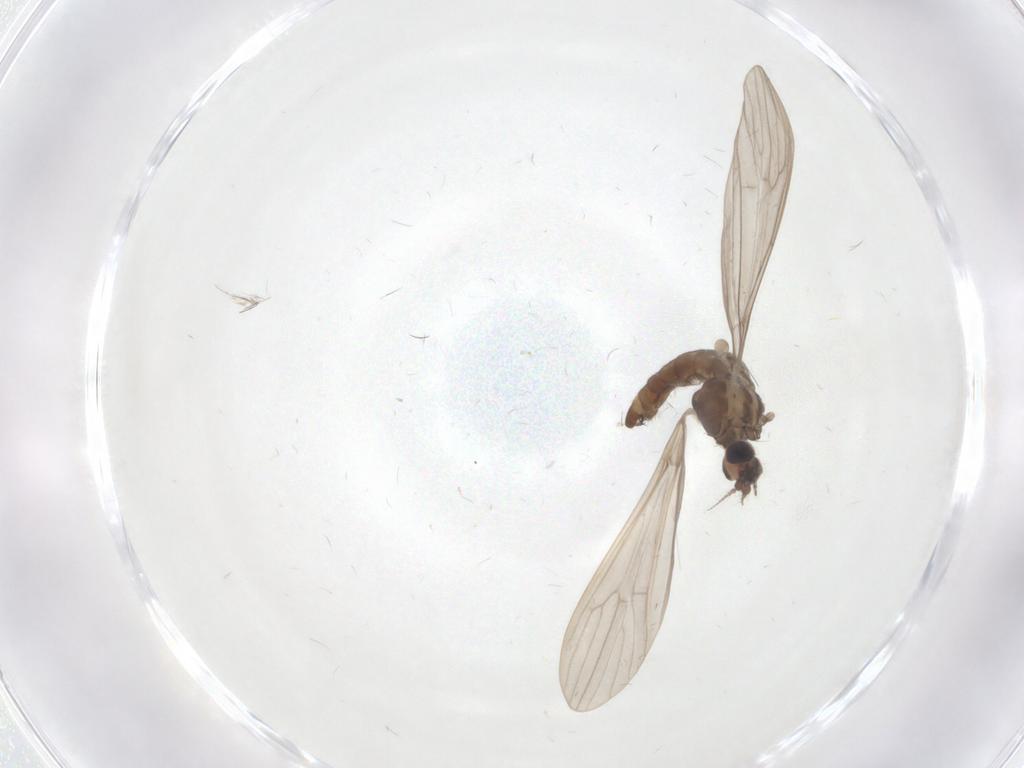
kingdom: Animalia
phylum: Arthropoda
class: Insecta
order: Diptera
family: Limoniidae
